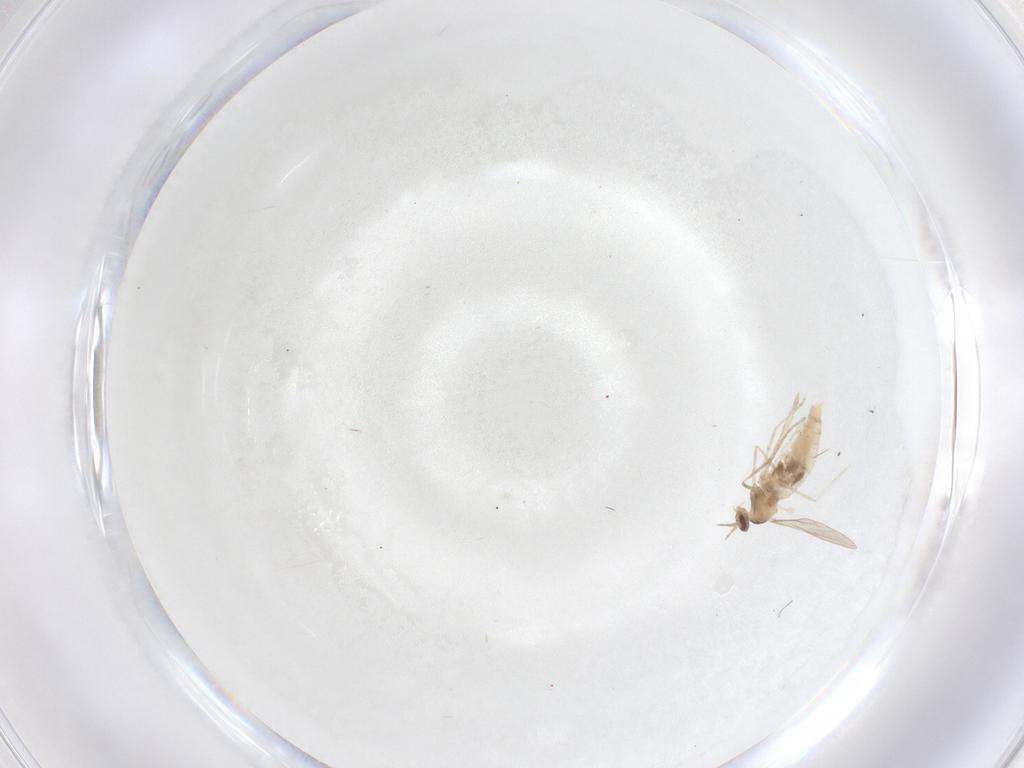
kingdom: Animalia
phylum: Arthropoda
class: Insecta
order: Diptera
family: Cecidomyiidae
